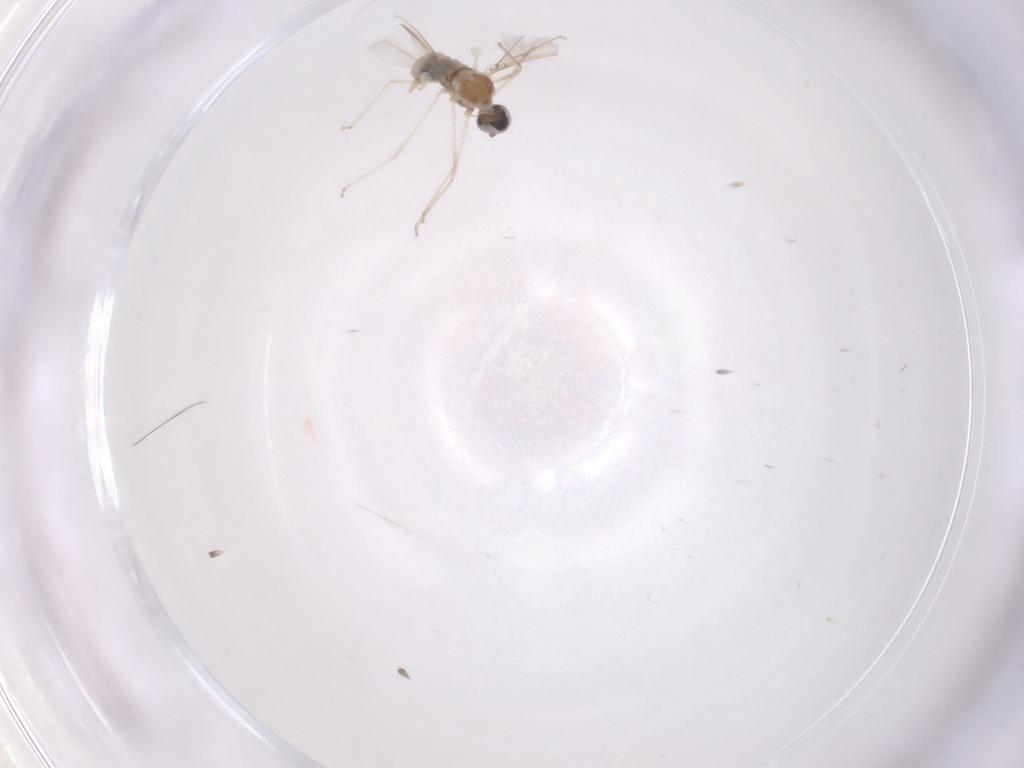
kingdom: Animalia
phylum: Arthropoda
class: Insecta
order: Diptera
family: Cecidomyiidae
